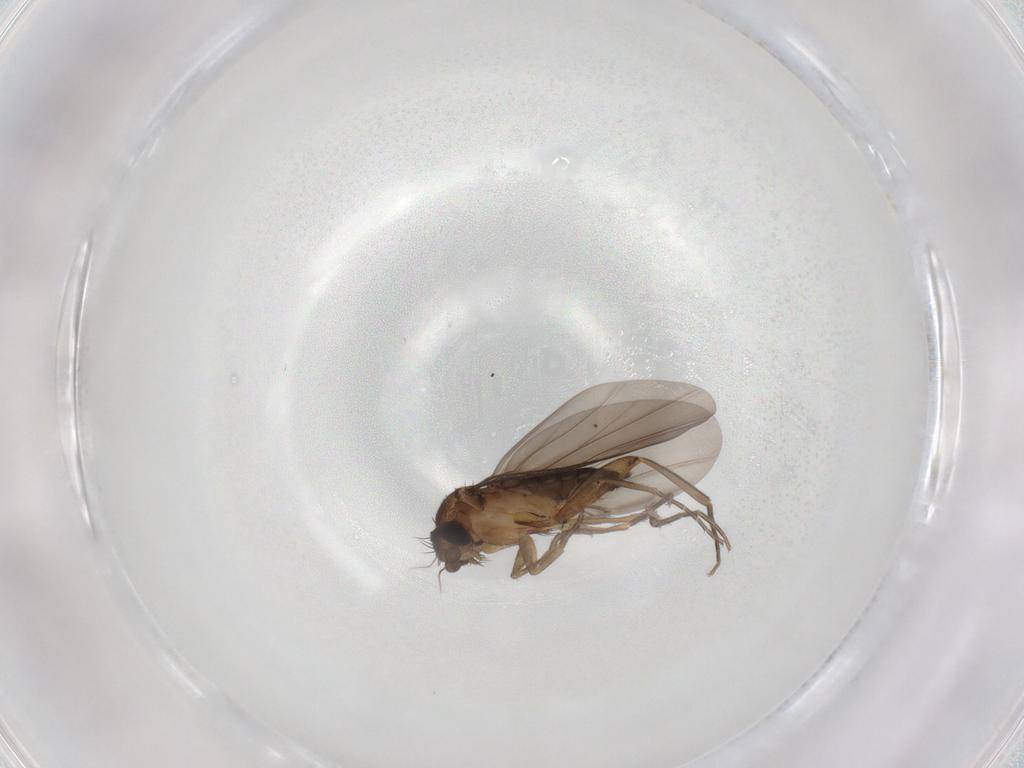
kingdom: Animalia
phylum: Arthropoda
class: Insecta
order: Diptera
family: Phoridae
